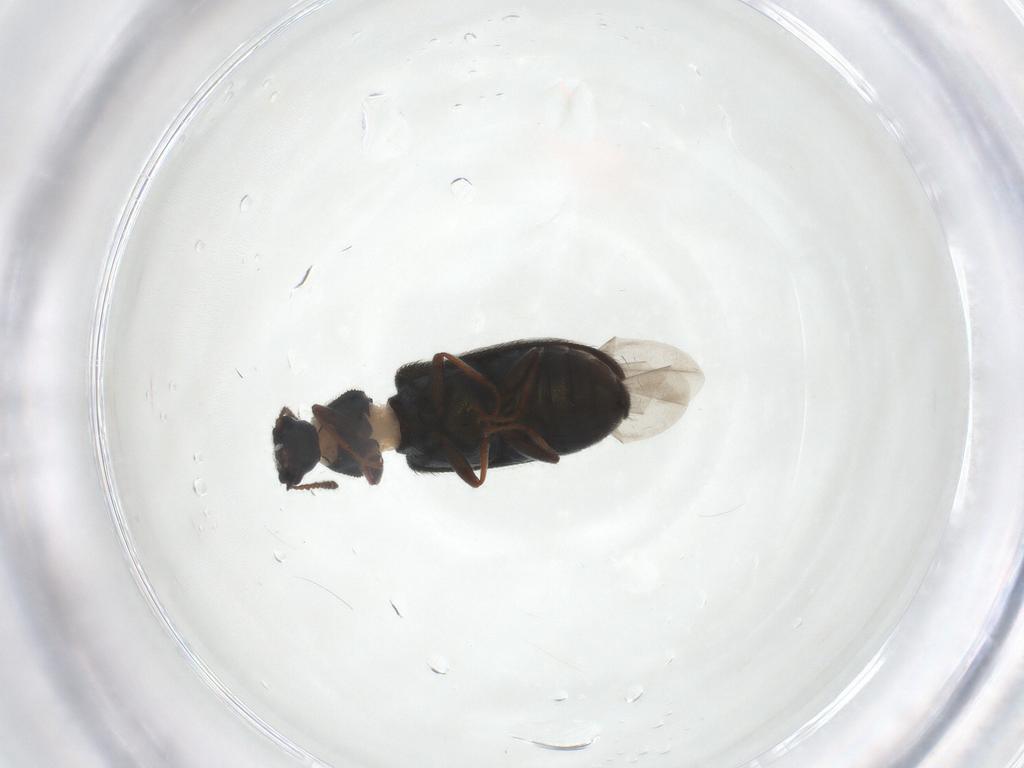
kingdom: Animalia
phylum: Arthropoda
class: Insecta
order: Coleoptera
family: Melyridae
